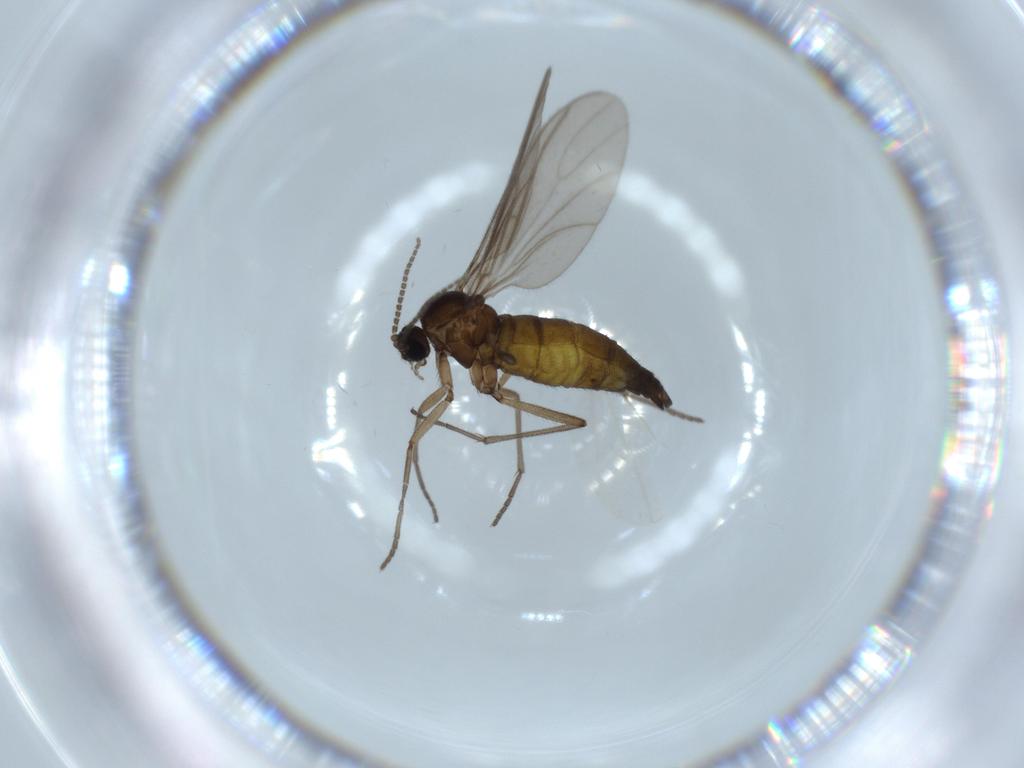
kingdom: Animalia
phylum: Arthropoda
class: Insecta
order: Diptera
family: Sciaridae
